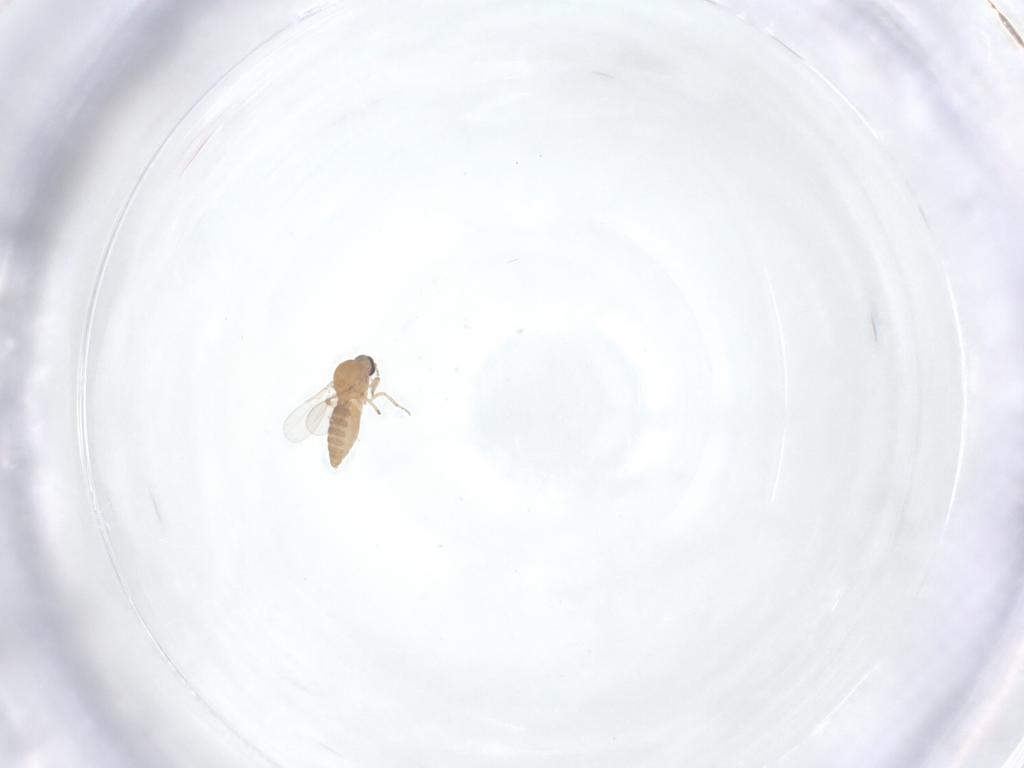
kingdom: Animalia
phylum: Arthropoda
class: Insecta
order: Diptera
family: Ceratopogonidae
